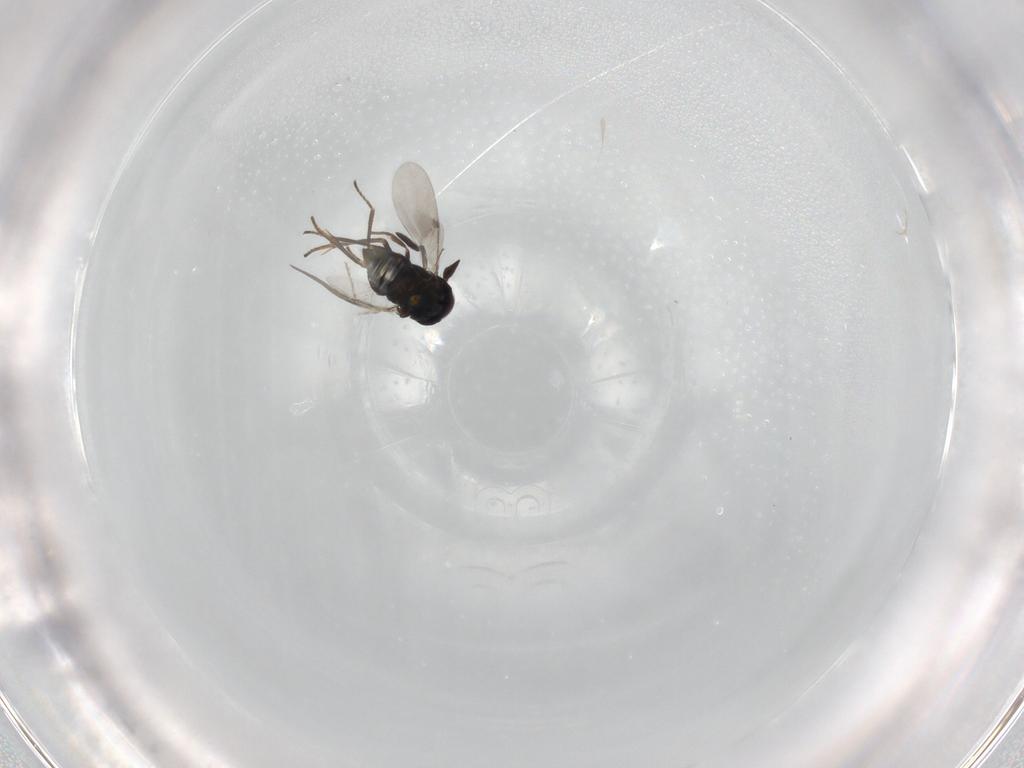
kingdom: Animalia
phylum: Arthropoda
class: Insecta
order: Hymenoptera
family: Encyrtidae
